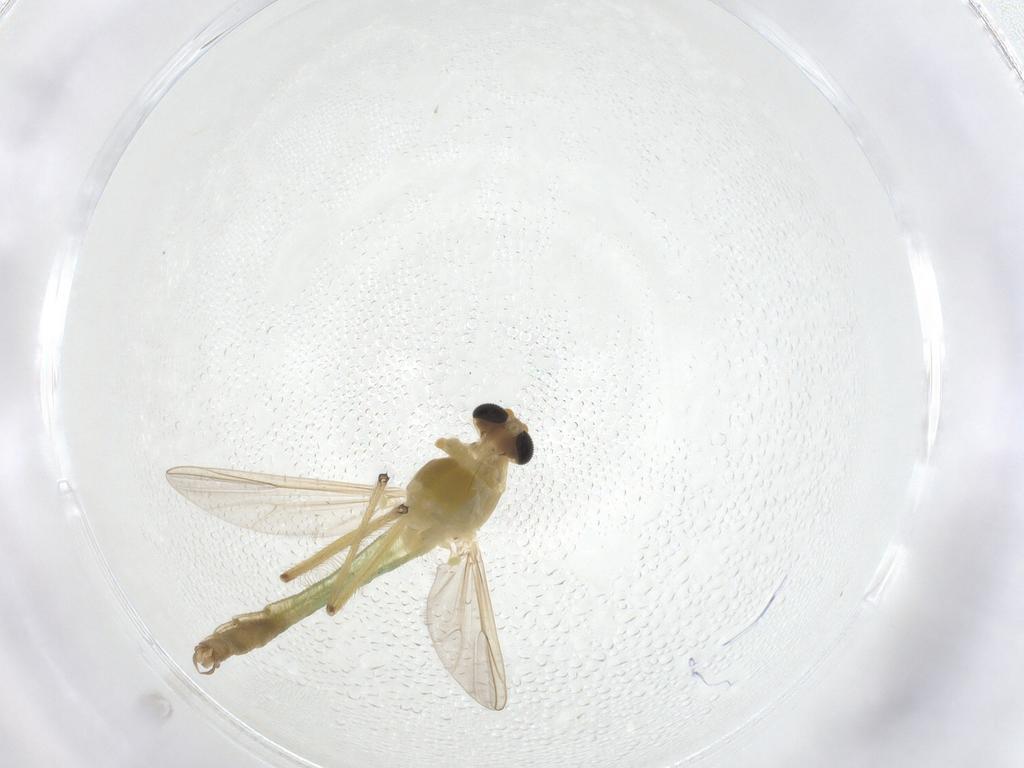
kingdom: Animalia
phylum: Arthropoda
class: Insecta
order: Diptera
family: Chironomidae
